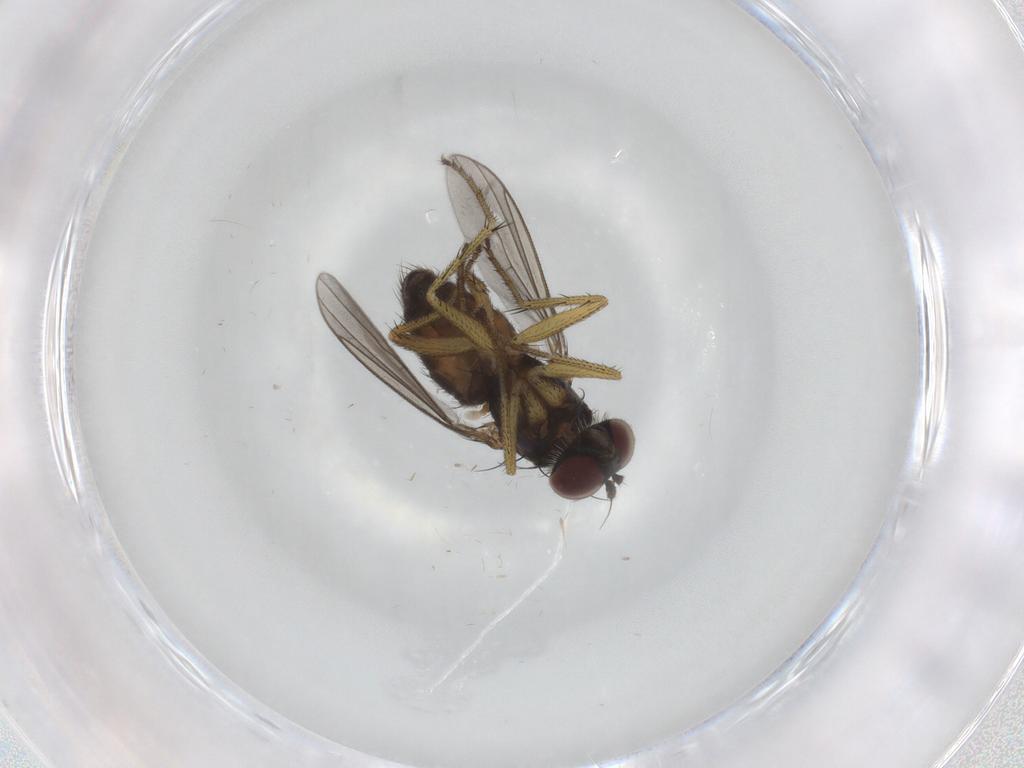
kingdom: Animalia
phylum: Arthropoda
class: Insecta
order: Diptera
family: Dolichopodidae
